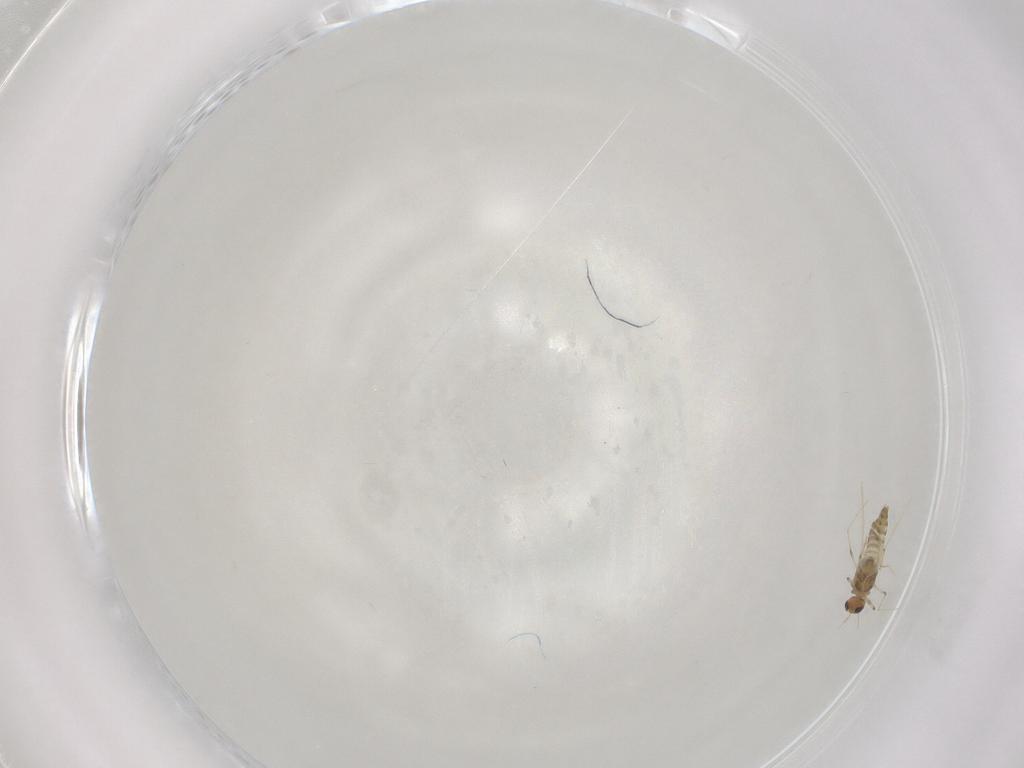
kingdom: Animalia
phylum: Arthropoda
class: Insecta
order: Diptera
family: Chironomidae
